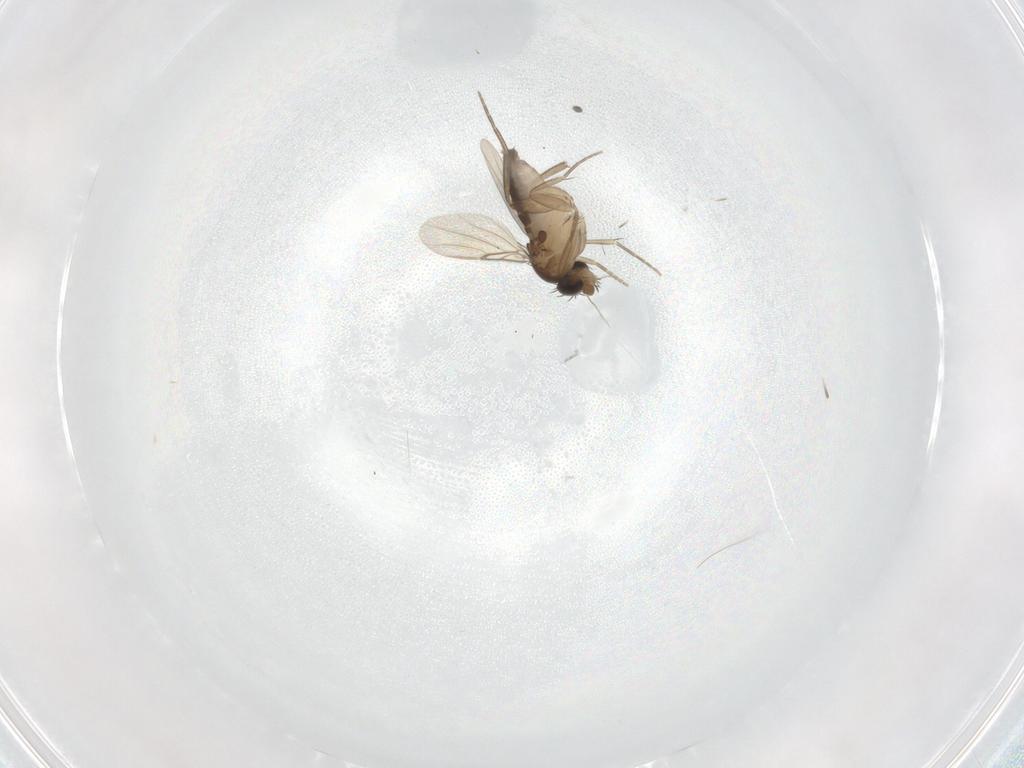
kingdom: Animalia
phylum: Arthropoda
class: Insecta
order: Diptera
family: Phoridae
